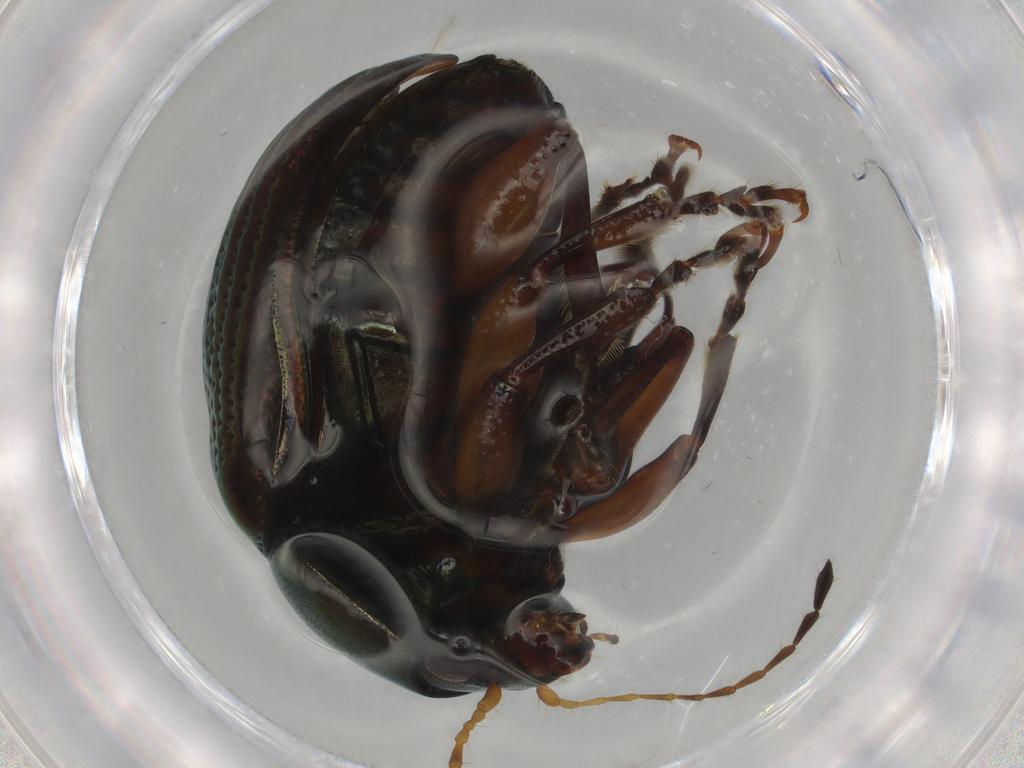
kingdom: Animalia
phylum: Arthropoda
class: Insecta
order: Coleoptera
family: Chrysomelidae
